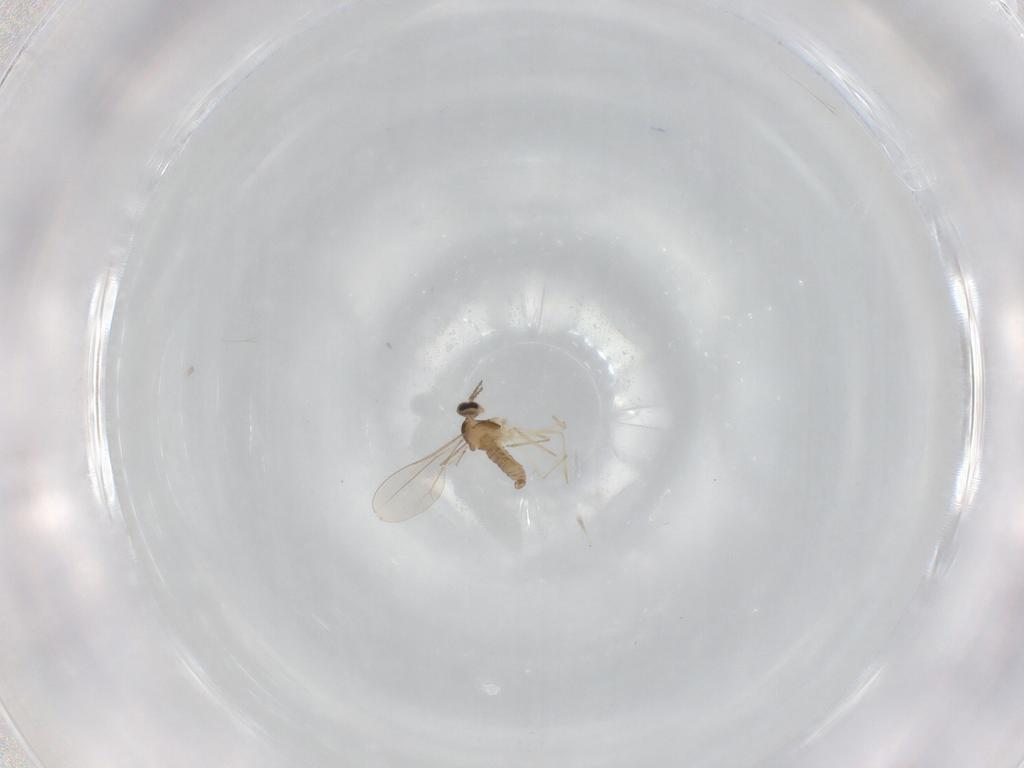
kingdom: Animalia
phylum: Arthropoda
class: Insecta
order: Diptera
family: Cecidomyiidae
